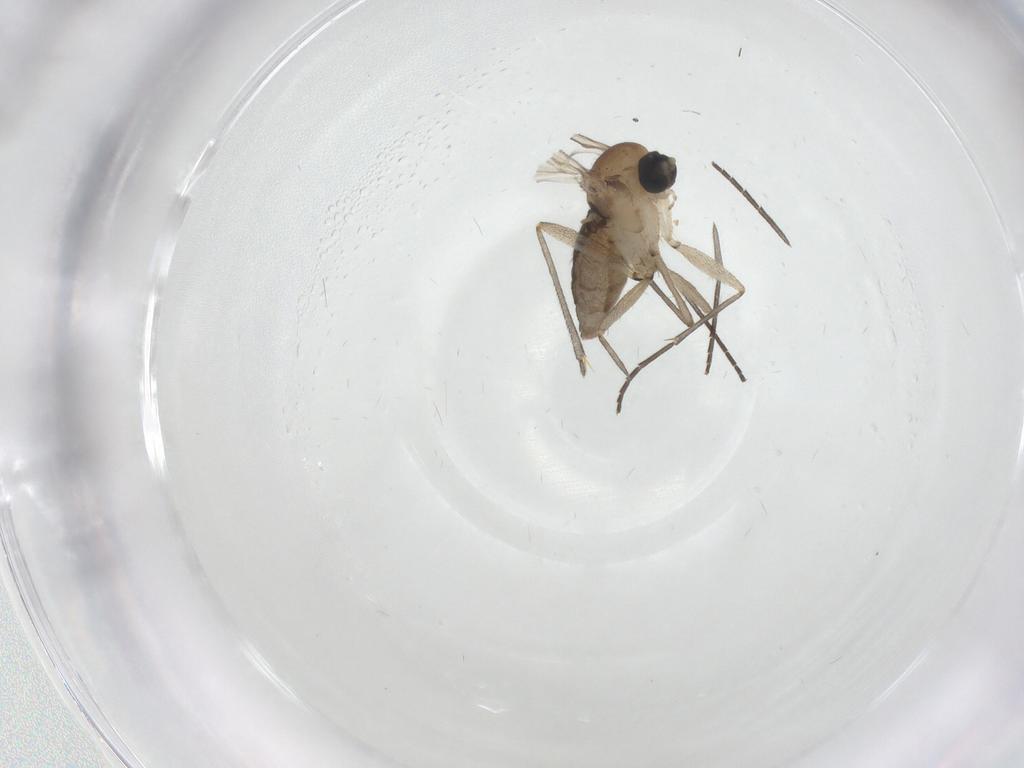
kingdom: Animalia
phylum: Arthropoda
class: Insecta
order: Diptera
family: Sciaridae
